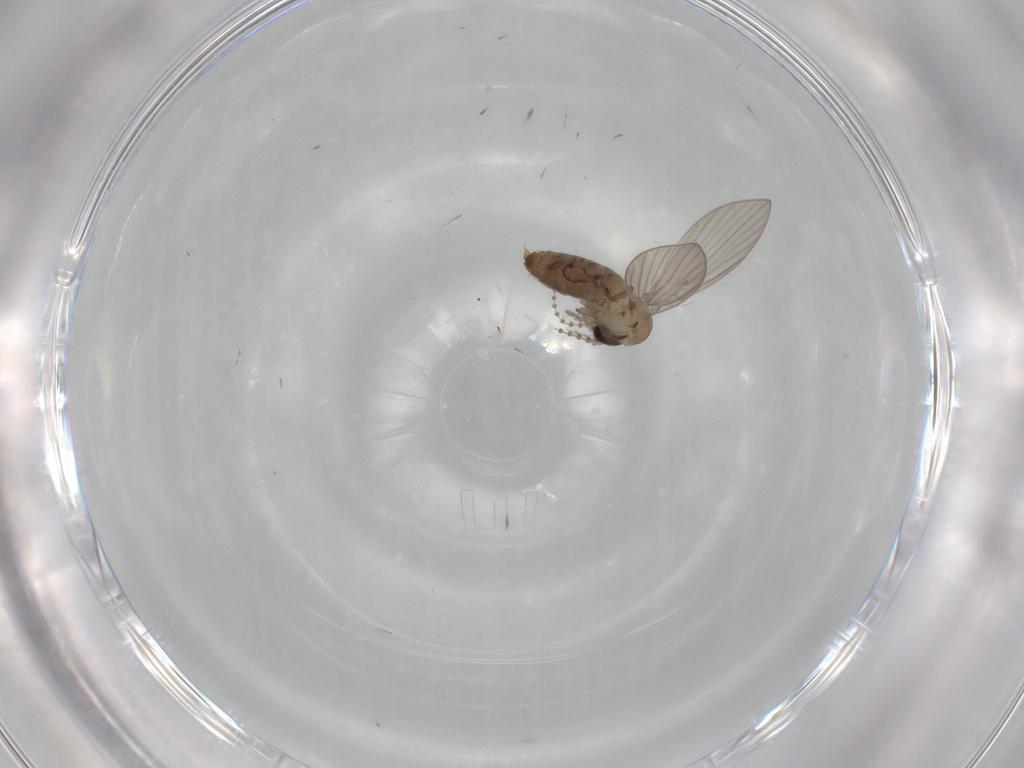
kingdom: Animalia
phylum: Arthropoda
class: Insecta
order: Diptera
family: Psychodidae
